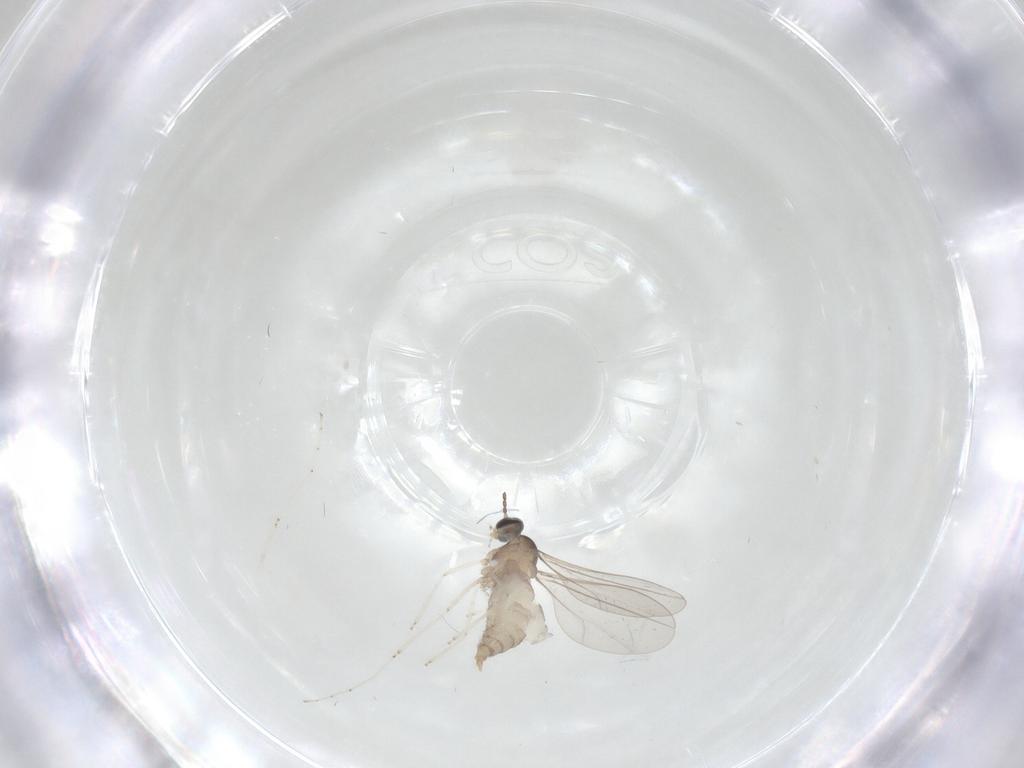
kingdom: Animalia
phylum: Arthropoda
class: Insecta
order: Diptera
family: Cecidomyiidae
